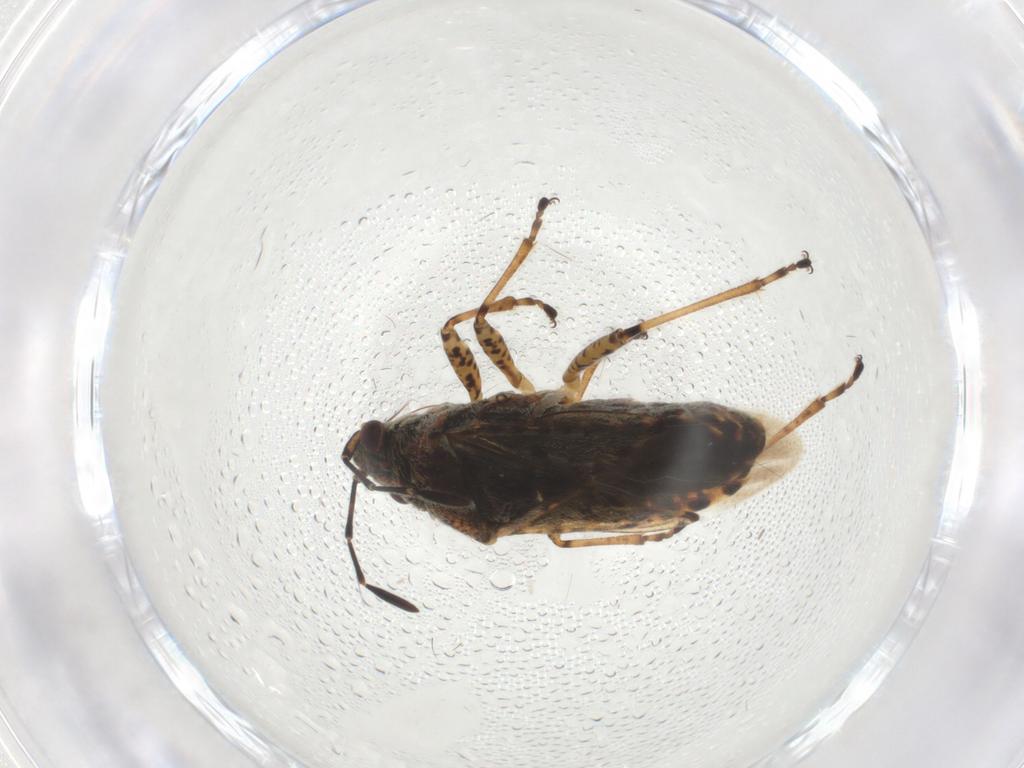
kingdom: Animalia
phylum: Arthropoda
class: Insecta
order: Hemiptera
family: Lygaeidae
